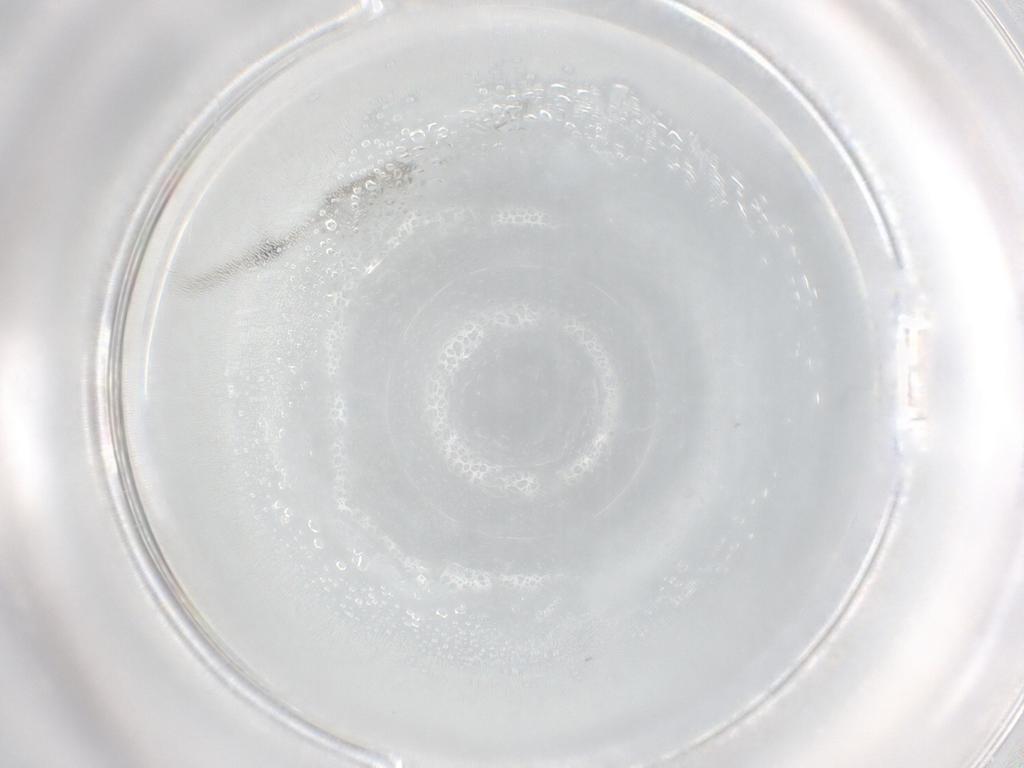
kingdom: Animalia
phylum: Arthropoda
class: Arachnida
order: Trombidiformes
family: Eupodidae
